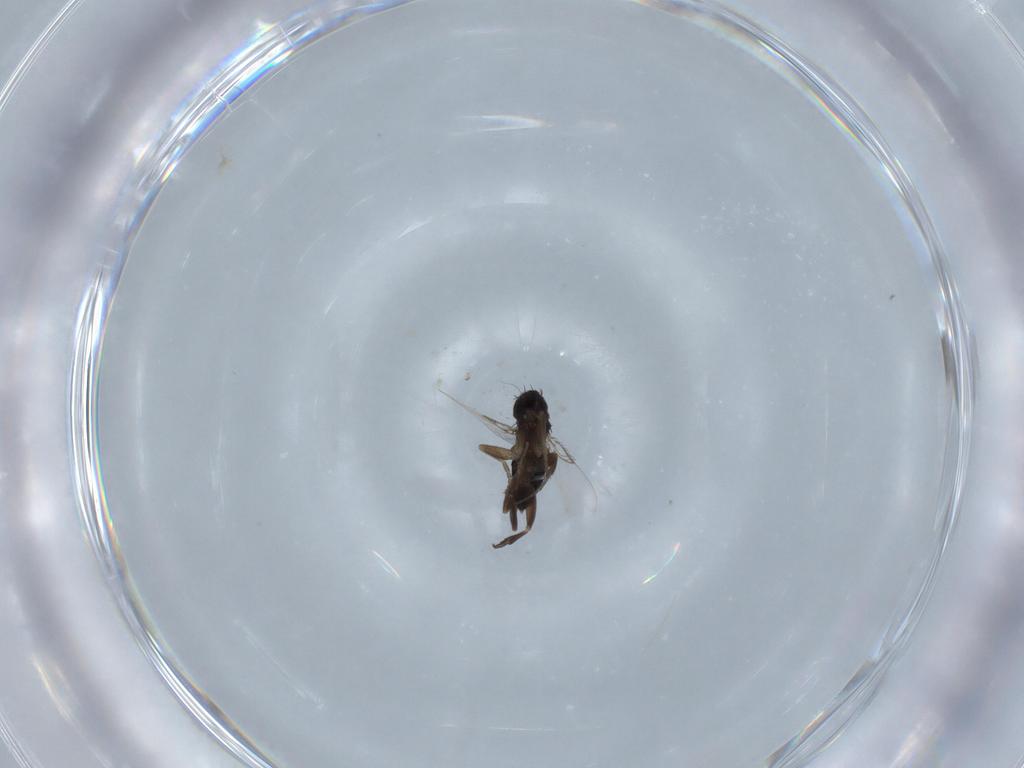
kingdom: Animalia
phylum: Arthropoda
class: Insecta
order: Diptera
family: Phoridae
